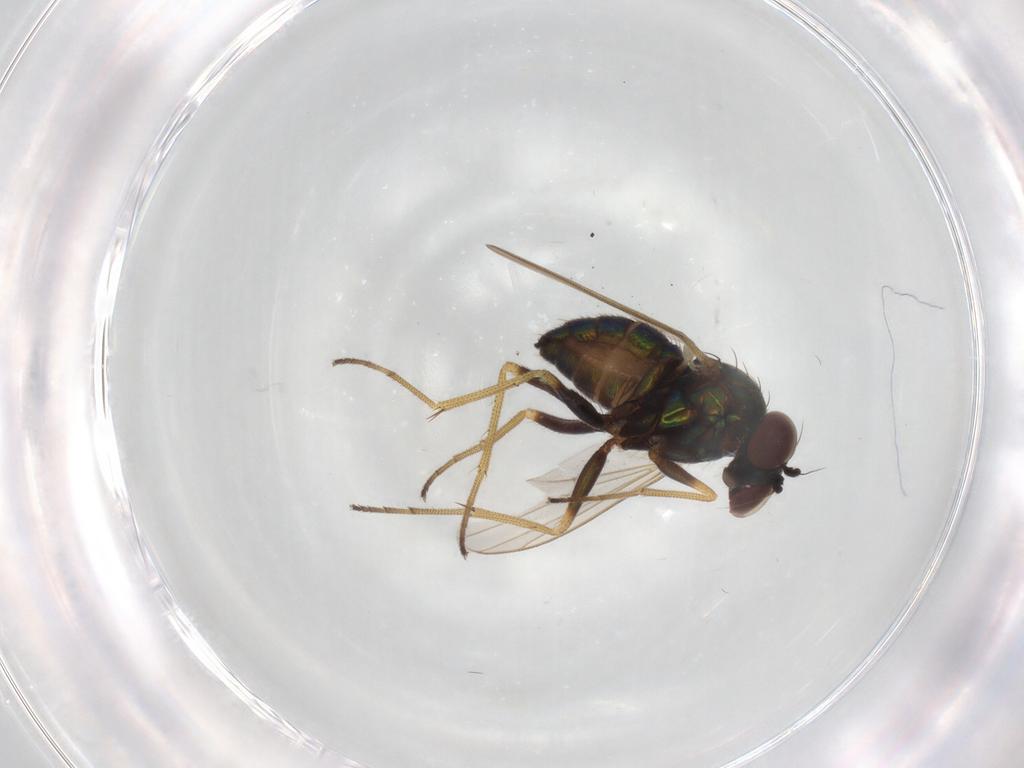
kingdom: Animalia
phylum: Arthropoda
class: Insecta
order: Diptera
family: Dolichopodidae
